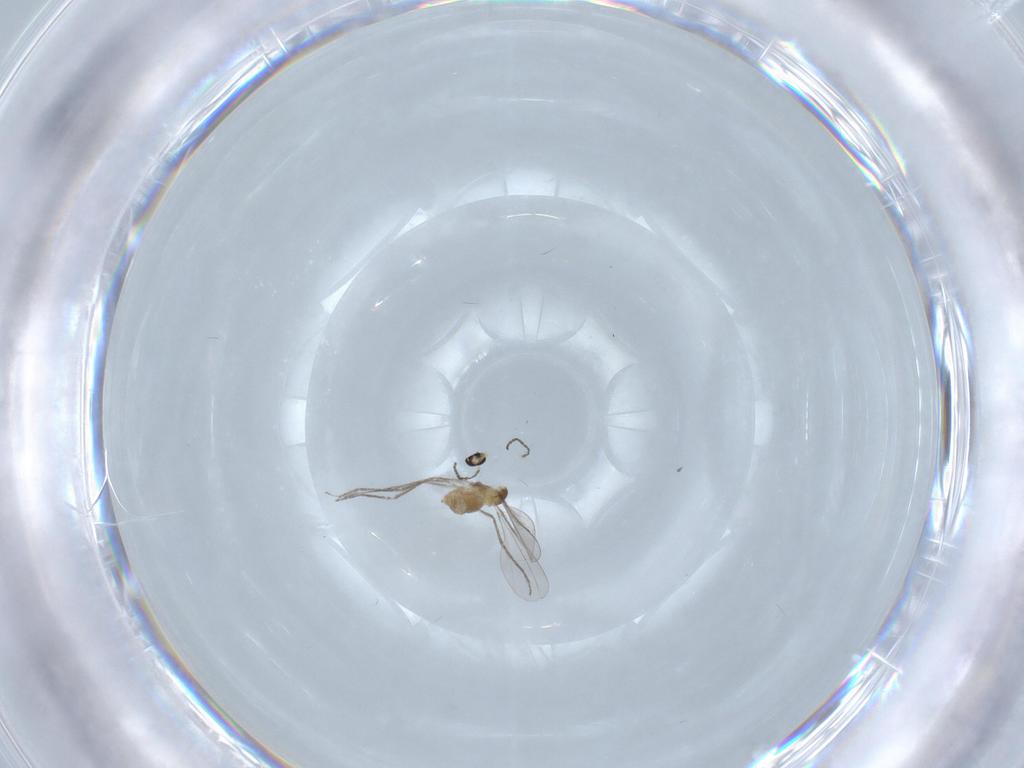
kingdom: Animalia
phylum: Arthropoda
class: Insecta
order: Diptera
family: Cecidomyiidae
